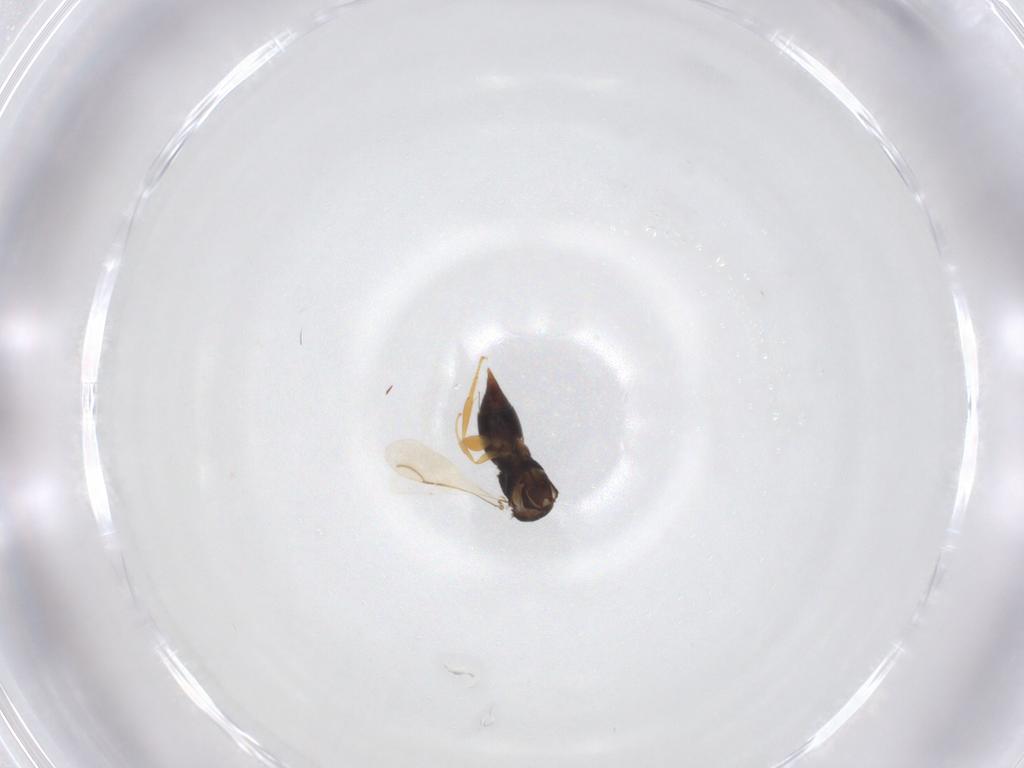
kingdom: Animalia
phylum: Arthropoda
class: Insecta
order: Hymenoptera
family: Ceraphronidae
